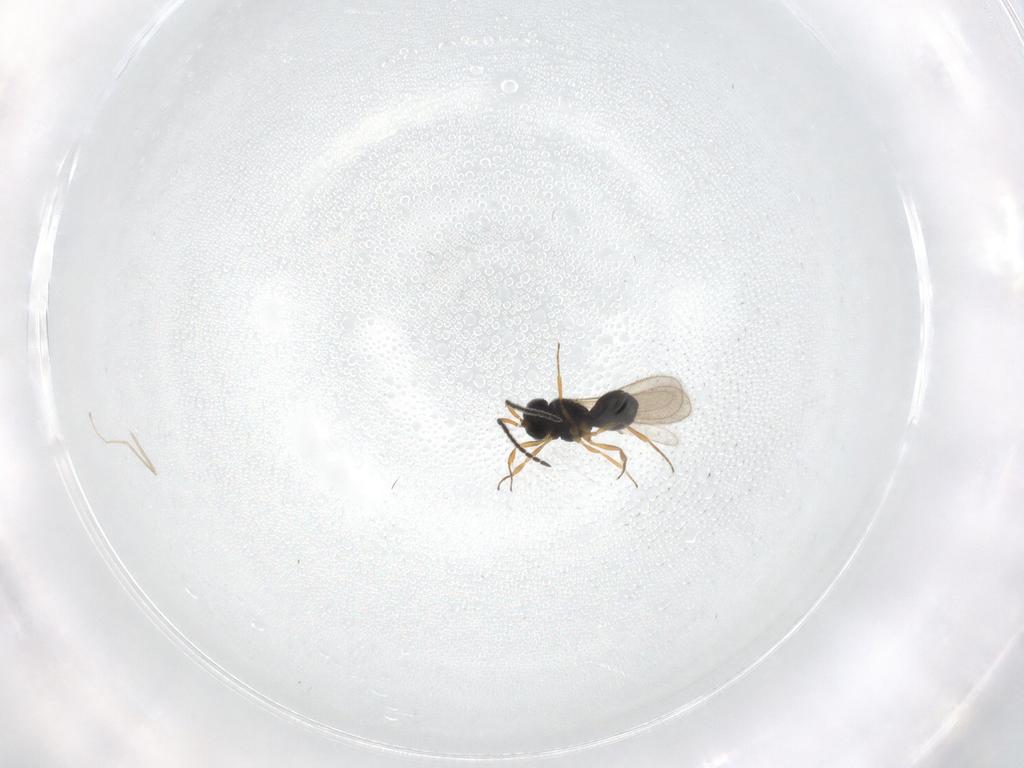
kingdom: Animalia
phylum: Arthropoda
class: Insecta
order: Hymenoptera
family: Scelionidae
